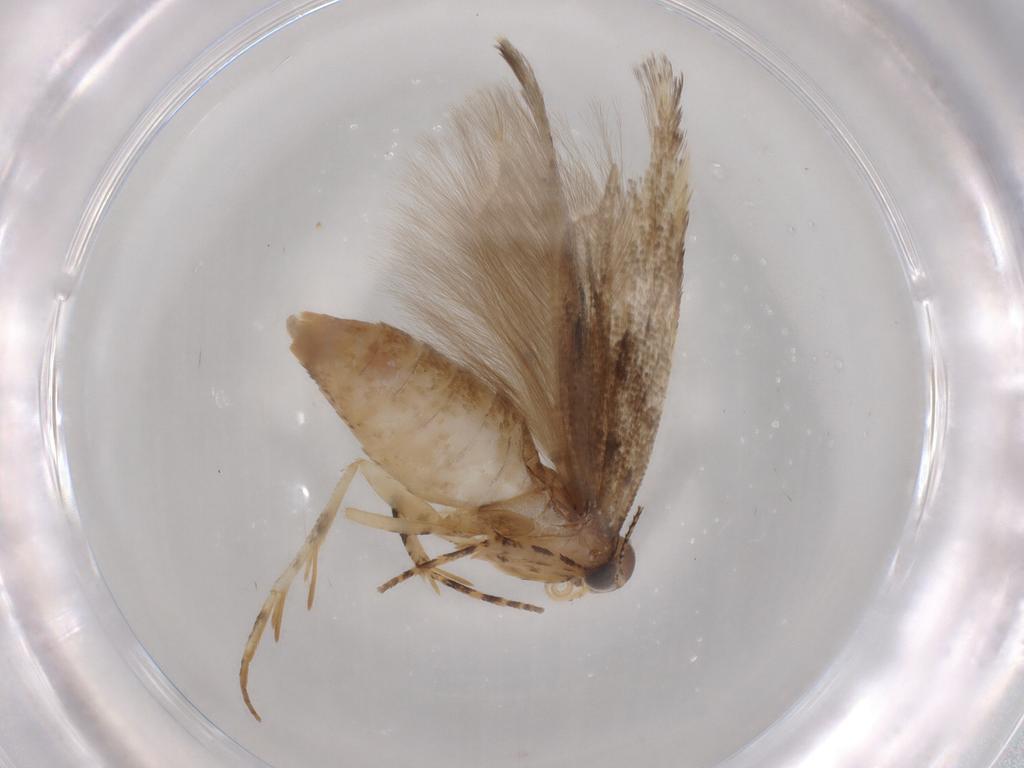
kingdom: Animalia
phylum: Arthropoda
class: Insecta
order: Lepidoptera
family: Gelechiidae
